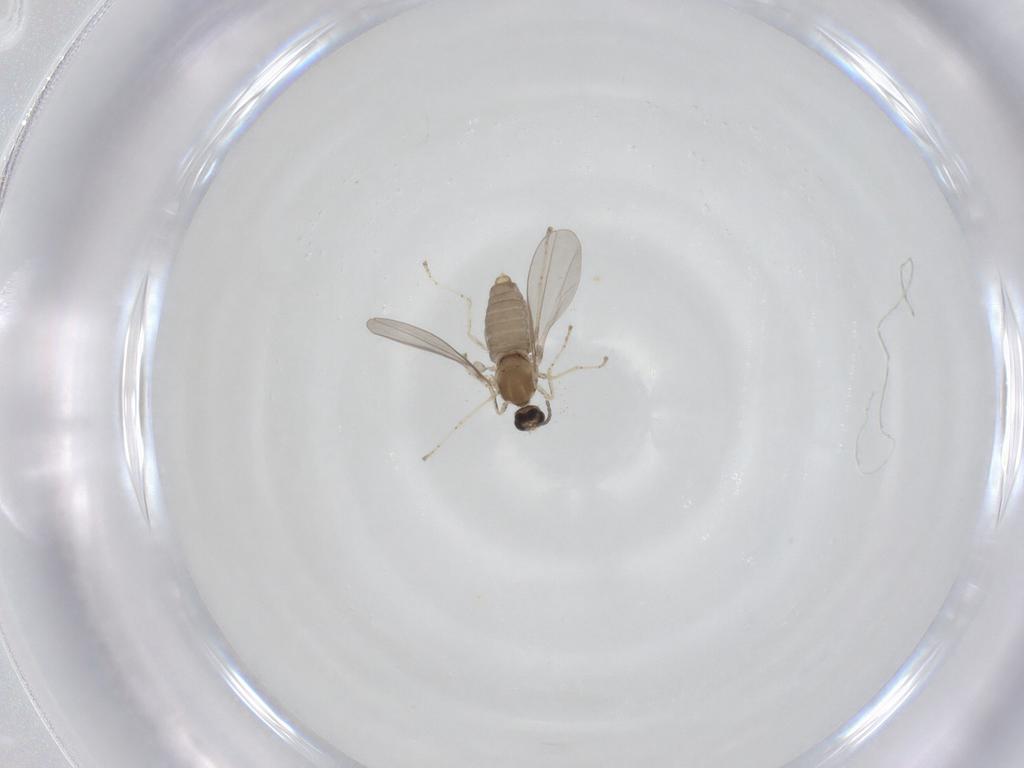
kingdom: Animalia
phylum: Arthropoda
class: Insecta
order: Diptera
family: Cecidomyiidae
